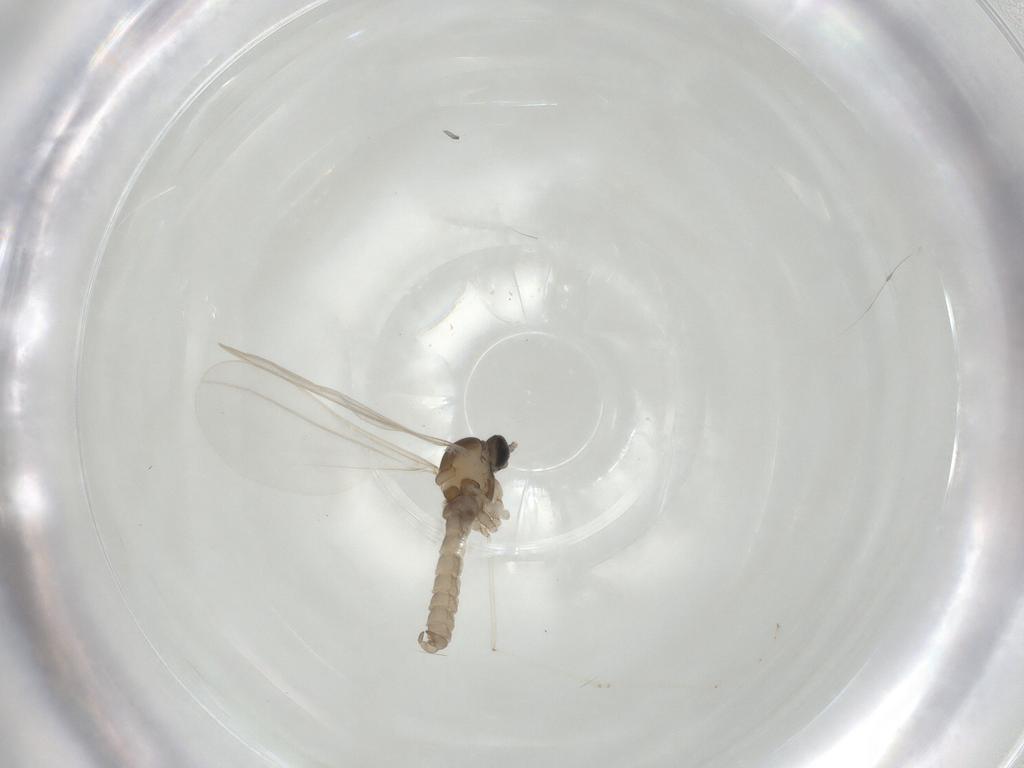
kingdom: Animalia
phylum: Arthropoda
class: Insecta
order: Diptera
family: Cecidomyiidae
